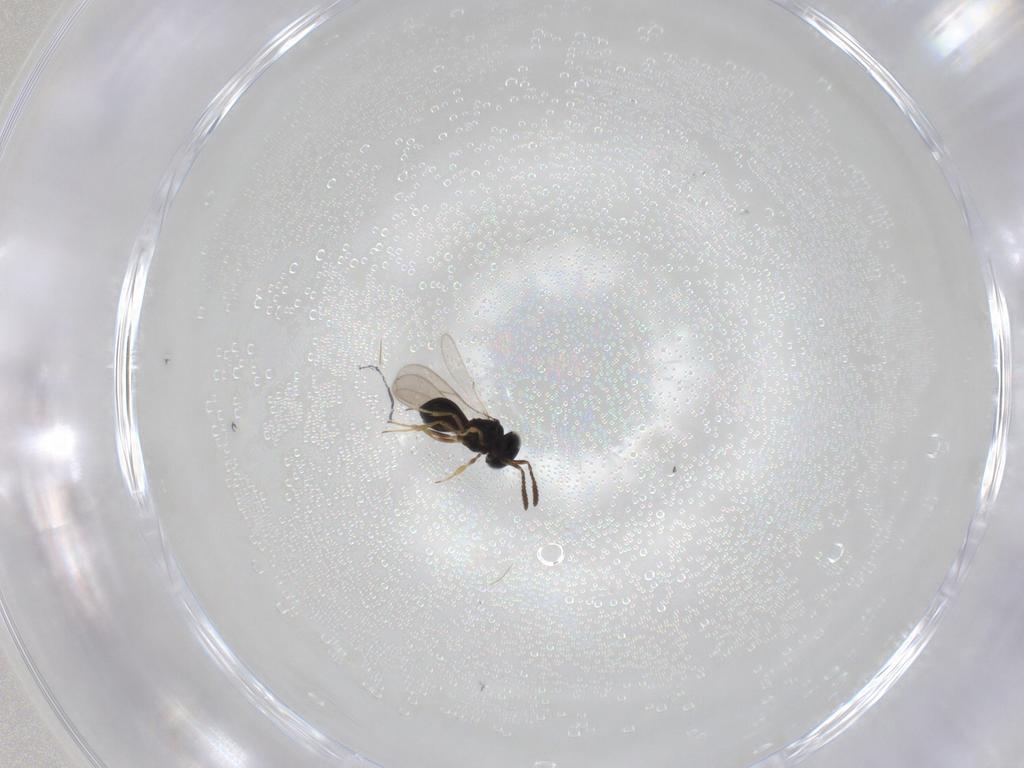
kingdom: Animalia
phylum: Arthropoda
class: Insecta
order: Hymenoptera
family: Scelionidae
